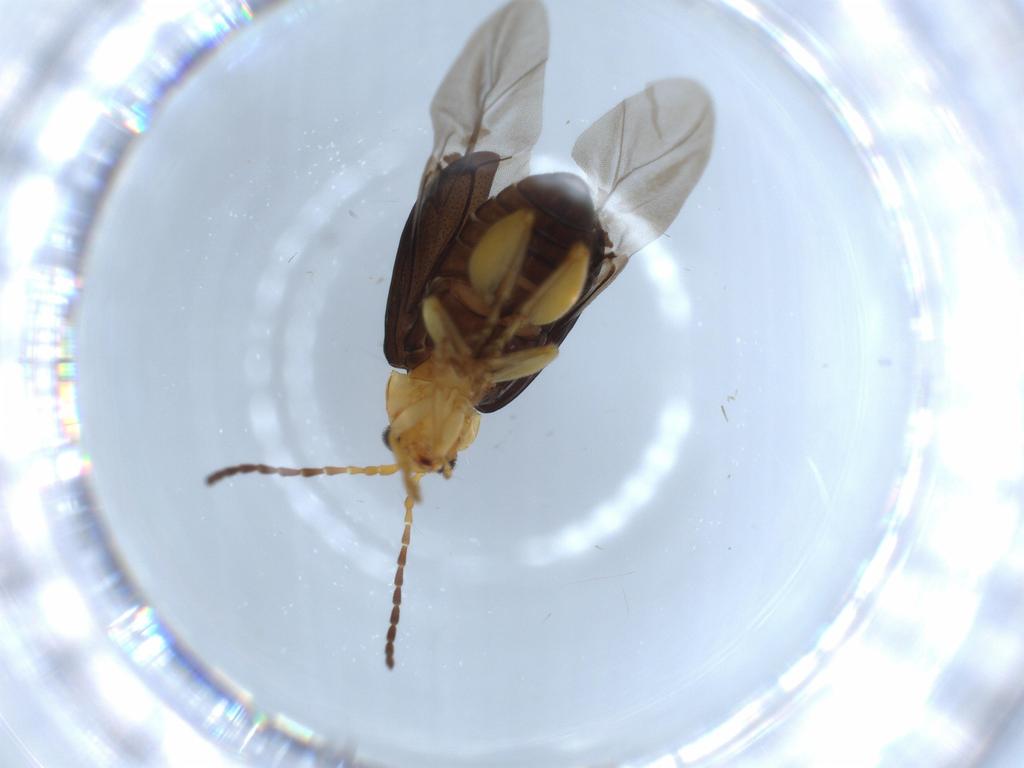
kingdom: Animalia
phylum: Arthropoda
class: Insecta
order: Coleoptera
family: Chrysomelidae
